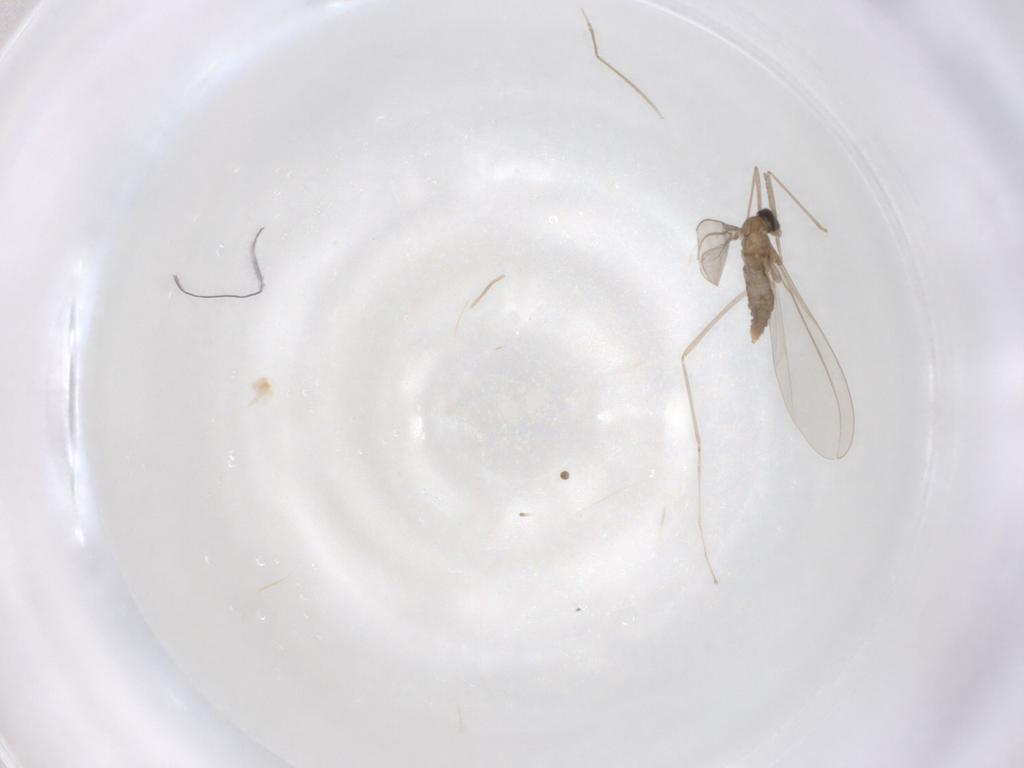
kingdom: Animalia
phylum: Arthropoda
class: Insecta
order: Diptera
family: Cecidomyiidae
